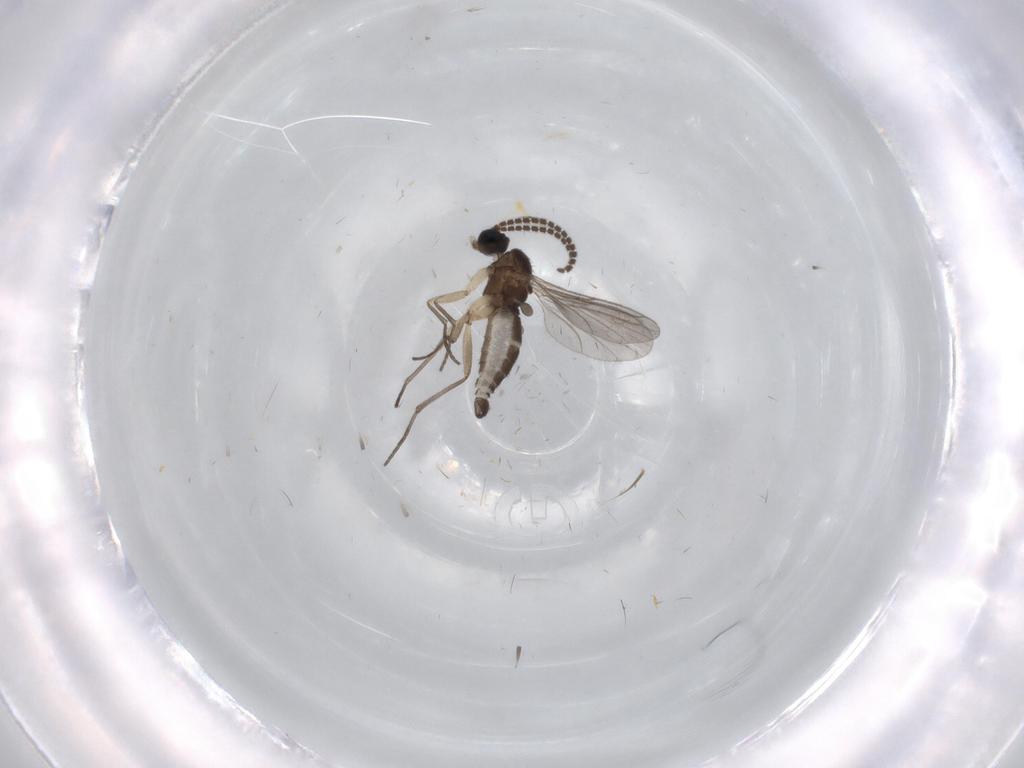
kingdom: Animalia
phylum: Arthropoda
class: Insecta
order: Diptera
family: Sciaridae
